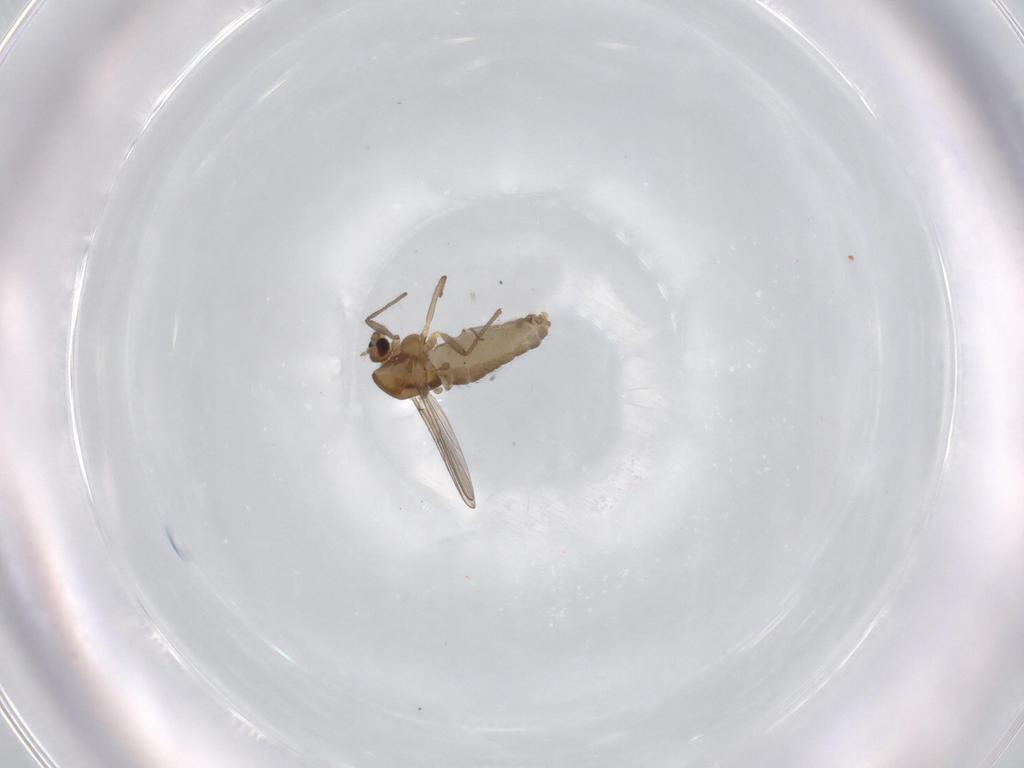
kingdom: Animalia
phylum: Arthropoda
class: Insecta
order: Diptera
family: Chironomidae
